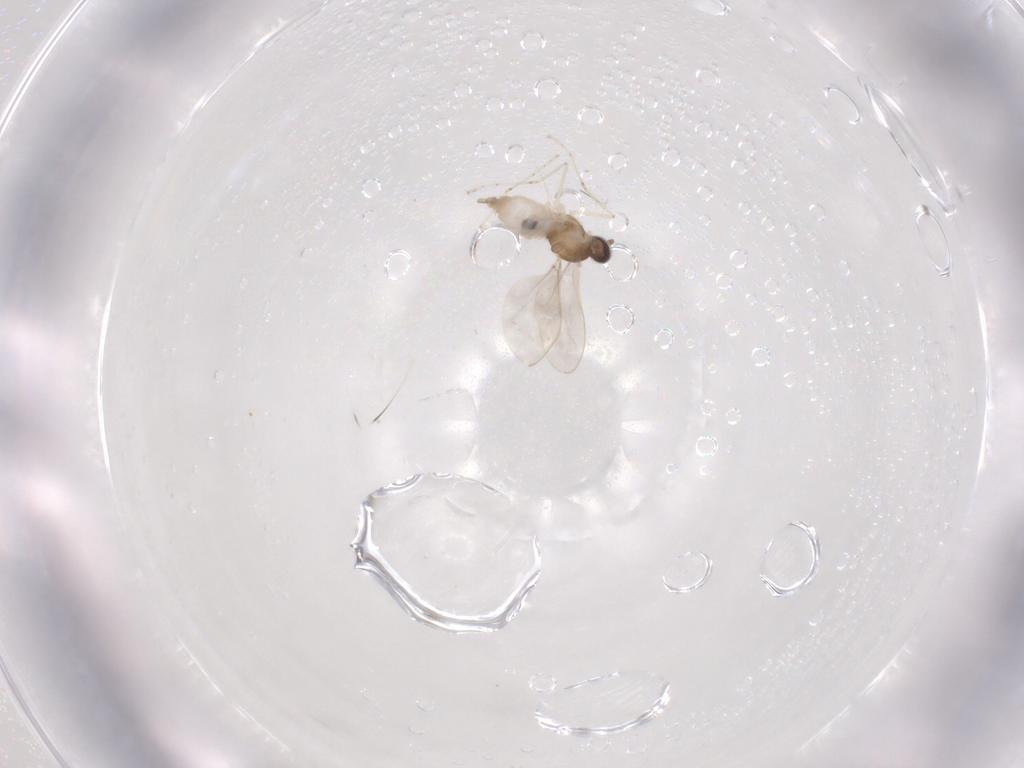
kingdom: Animalia
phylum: Arthropoda
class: Insecta
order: Diptera
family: Cecidomyiidae
